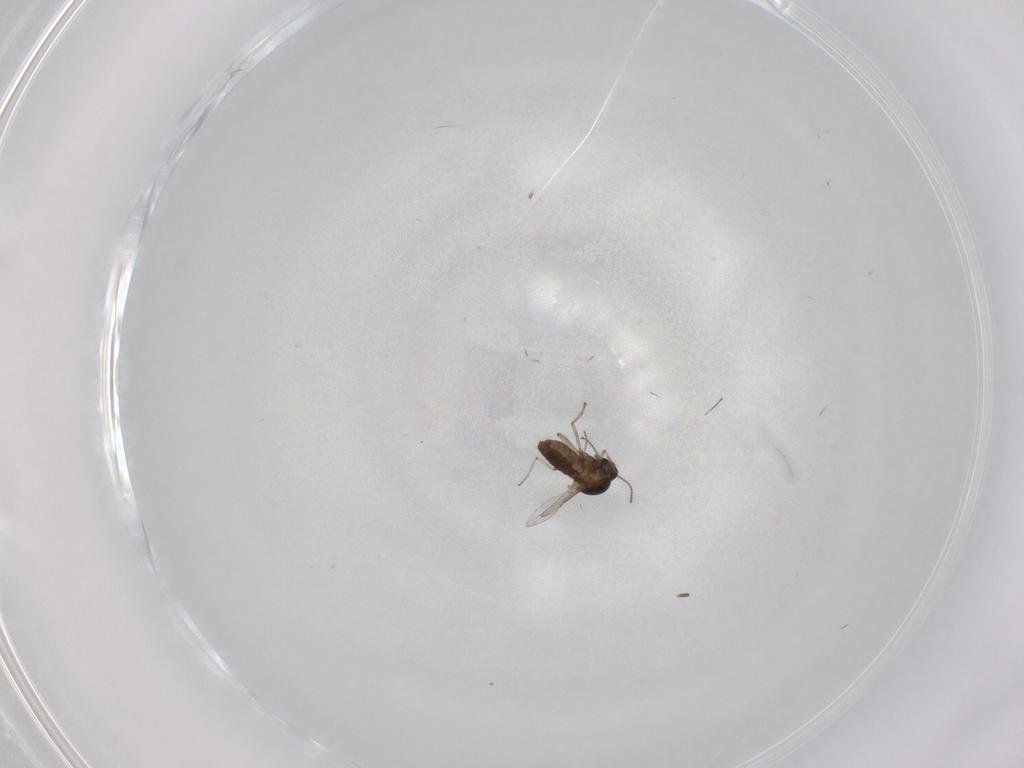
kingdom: Animalia
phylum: Arthropoda
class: Insecta
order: Diptera
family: Ceratopogonidae
